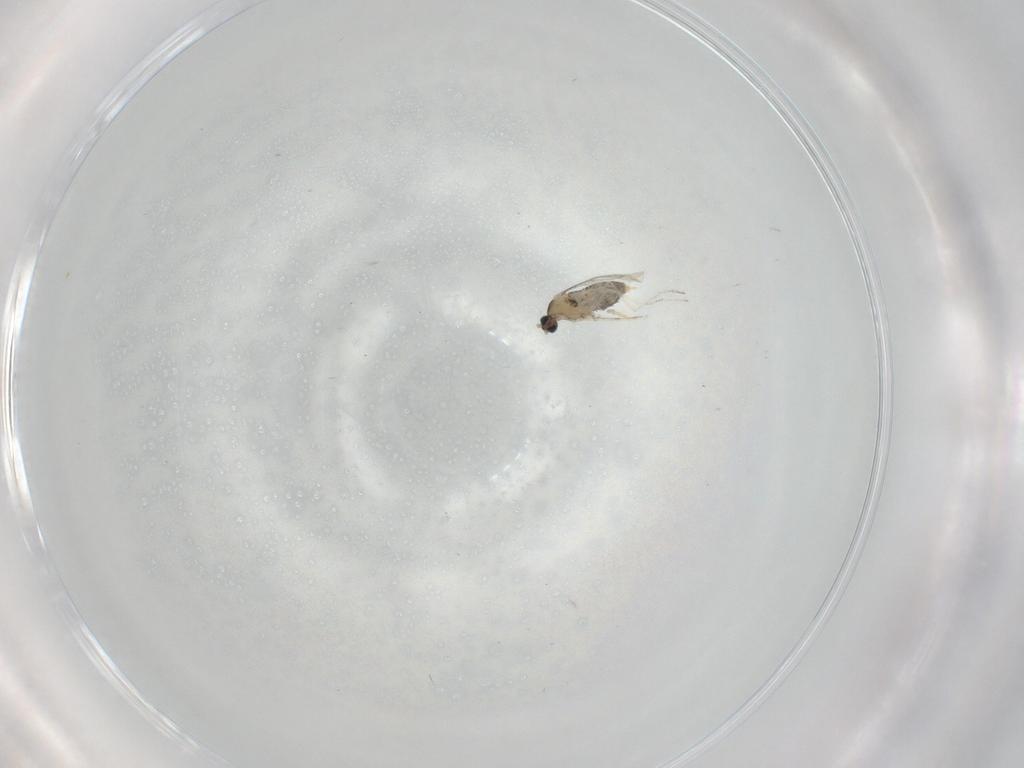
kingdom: Animalia
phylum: Arthropoda
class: Insecta
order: Diptera
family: Cecidomyiidae
